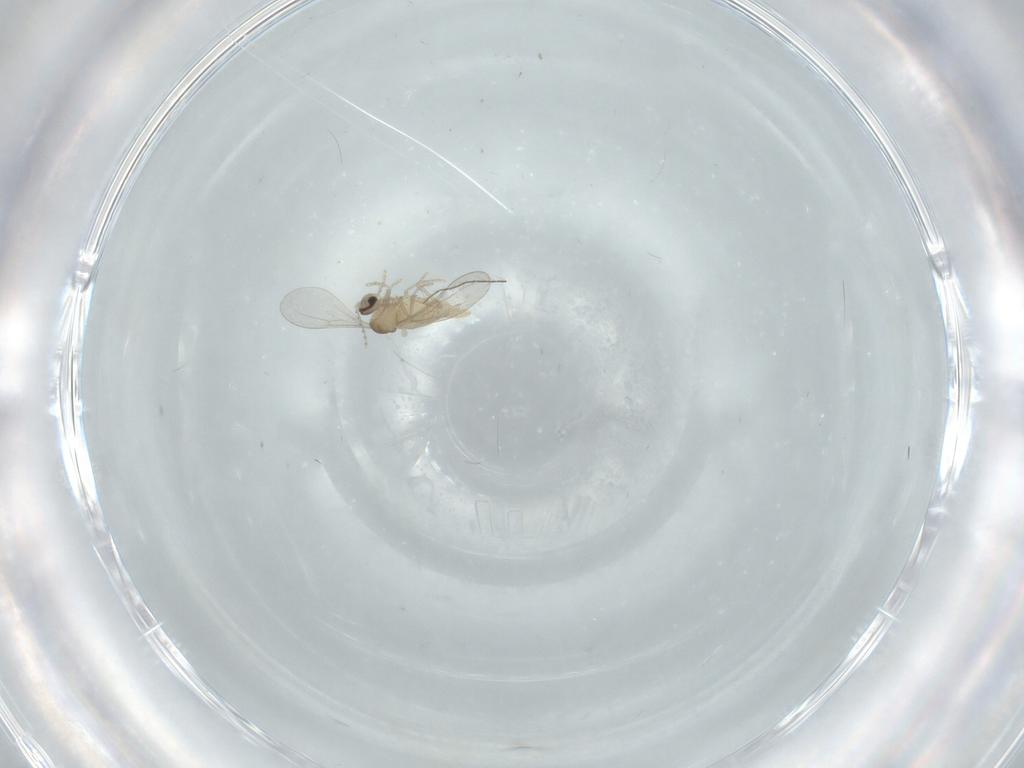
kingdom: Animalia
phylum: Arthropoda
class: Insecta
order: Diptera
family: Cecidomyiidae
